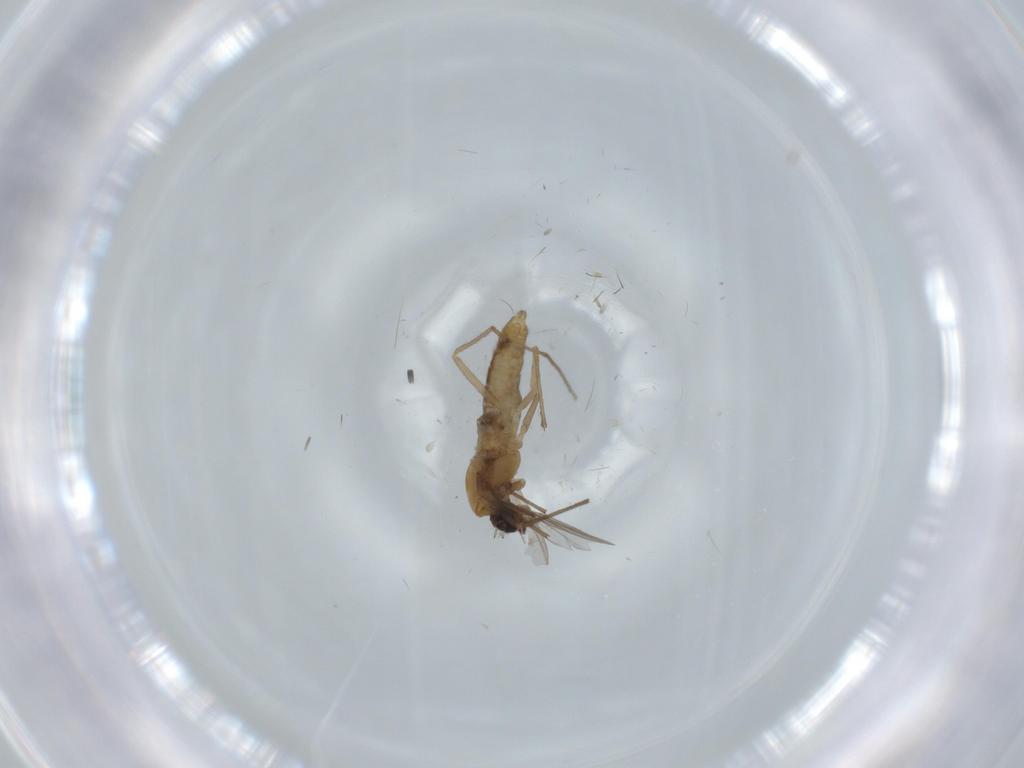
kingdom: Animalia
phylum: Arthropoda
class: Insecta
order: Diptera
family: Chironomidae
